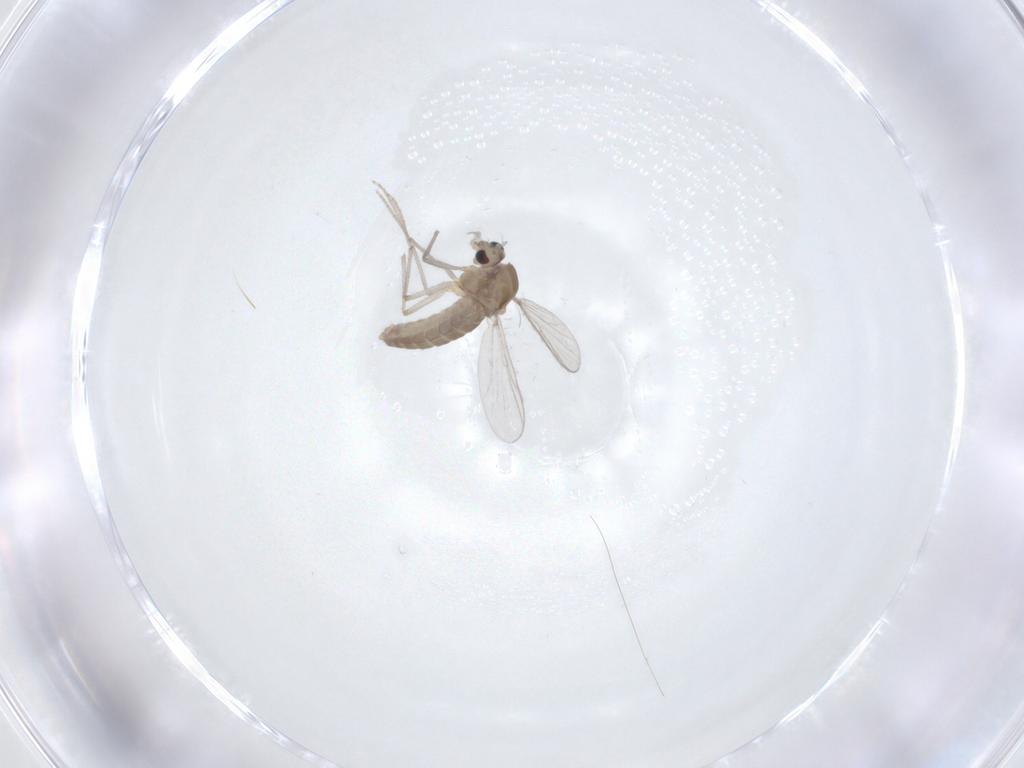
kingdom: Animalia
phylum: Arthropoda
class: Insecta
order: Diptera
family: Chironomidae
